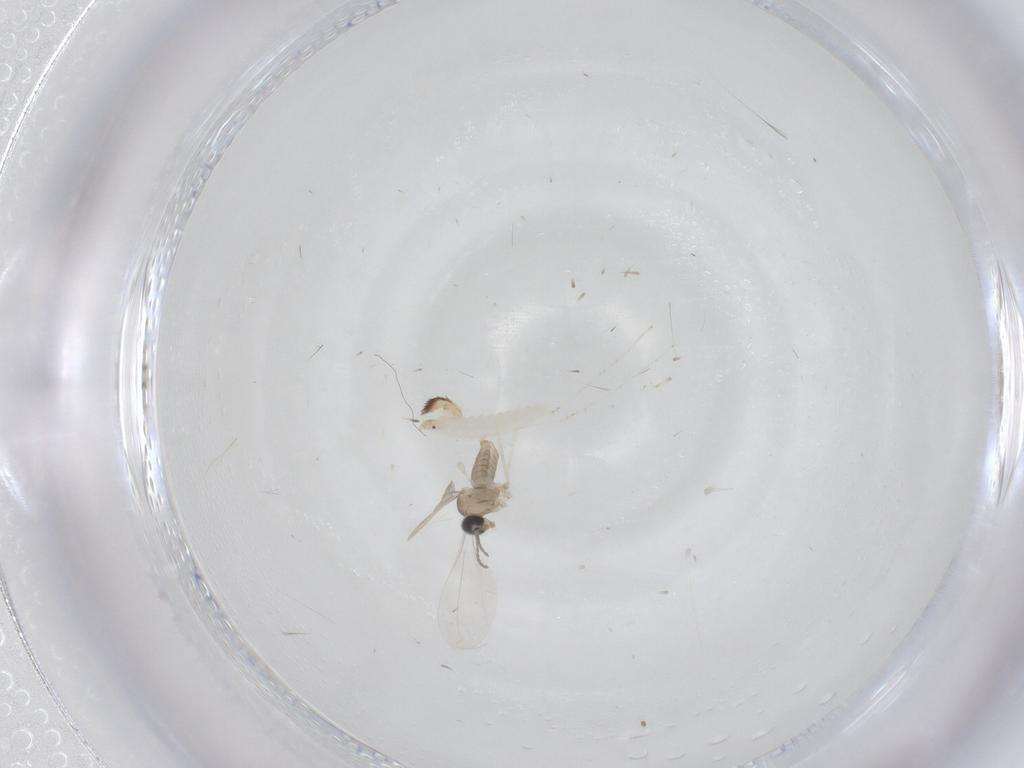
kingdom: Animalia
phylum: Arthropoda
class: Insecta
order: Diptera
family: Cecidomyiidae
